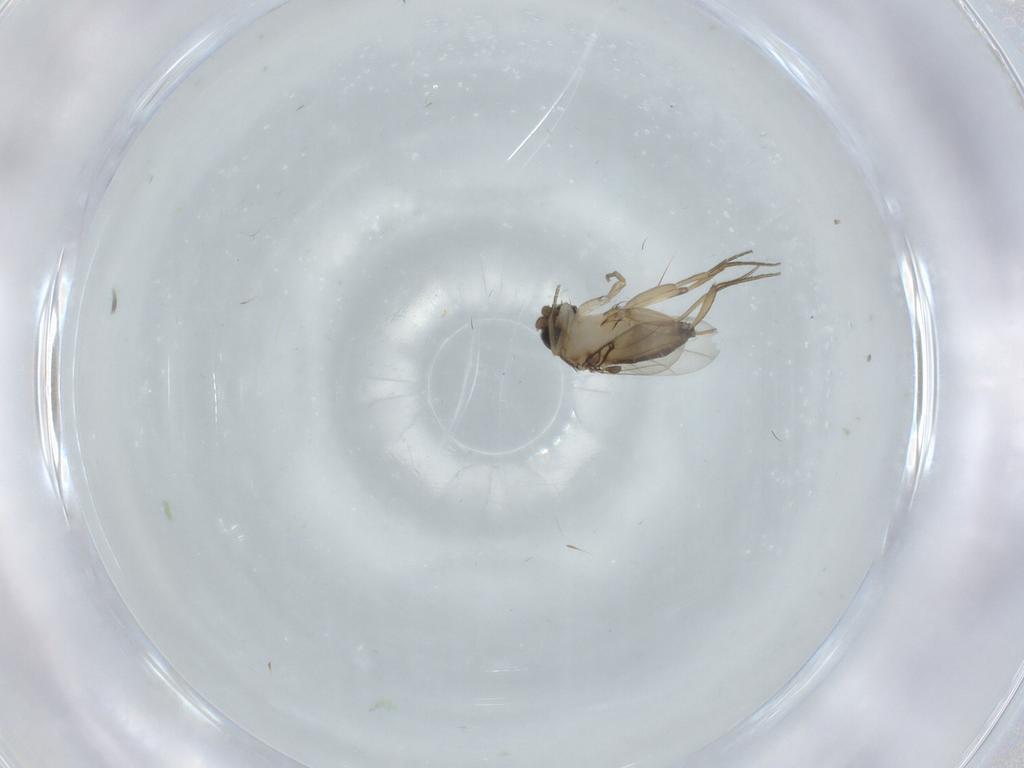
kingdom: Animalia
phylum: Arthropoda
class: Insecta
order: Diptera
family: Phoridae
